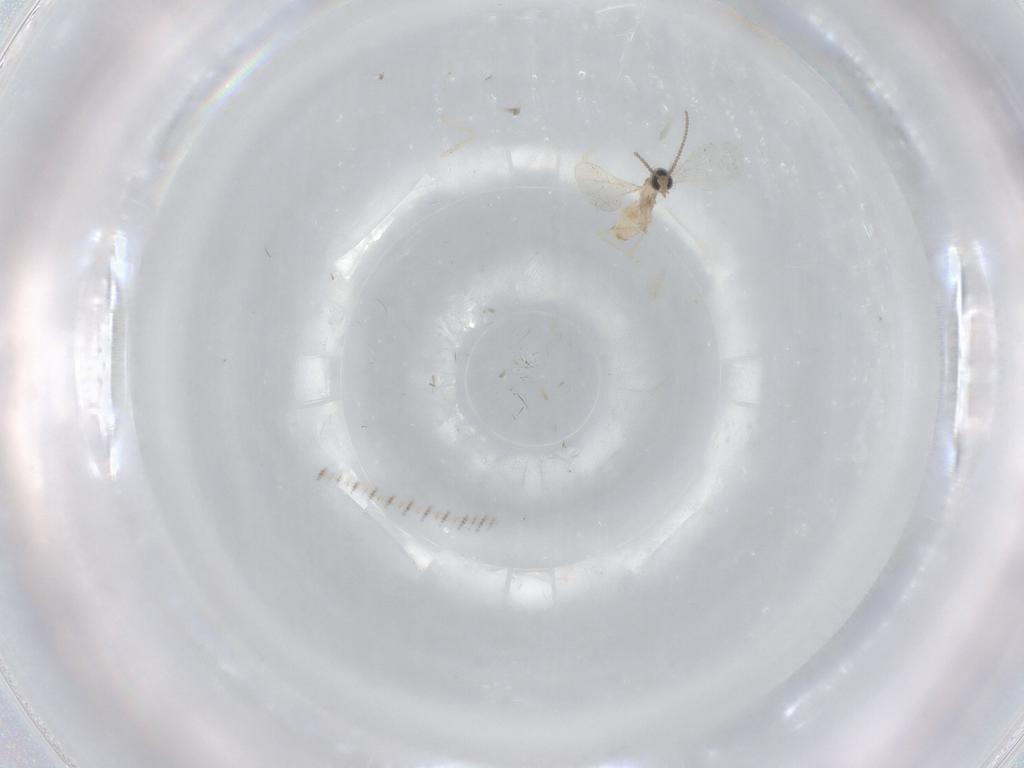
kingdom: Animalia
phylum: Arthropoda
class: Insecta
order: Diptera
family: Cecidomyiidae
